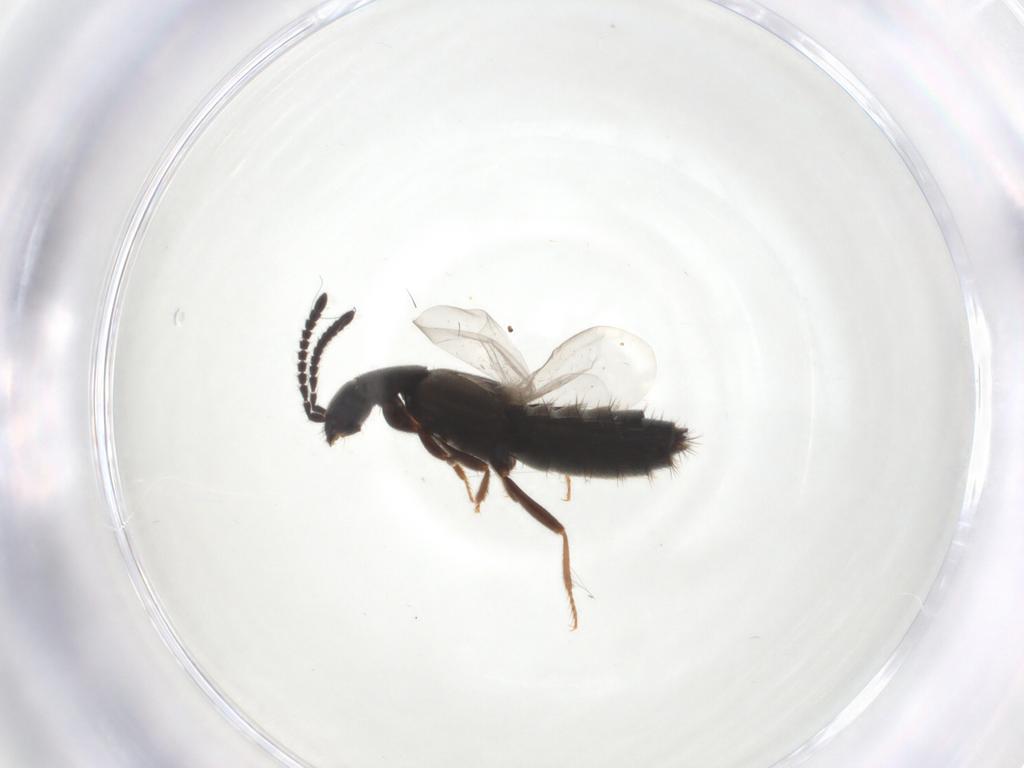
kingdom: Animalia
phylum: Arthropoda
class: Insecta
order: Coleoptera
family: Staphylinidae
